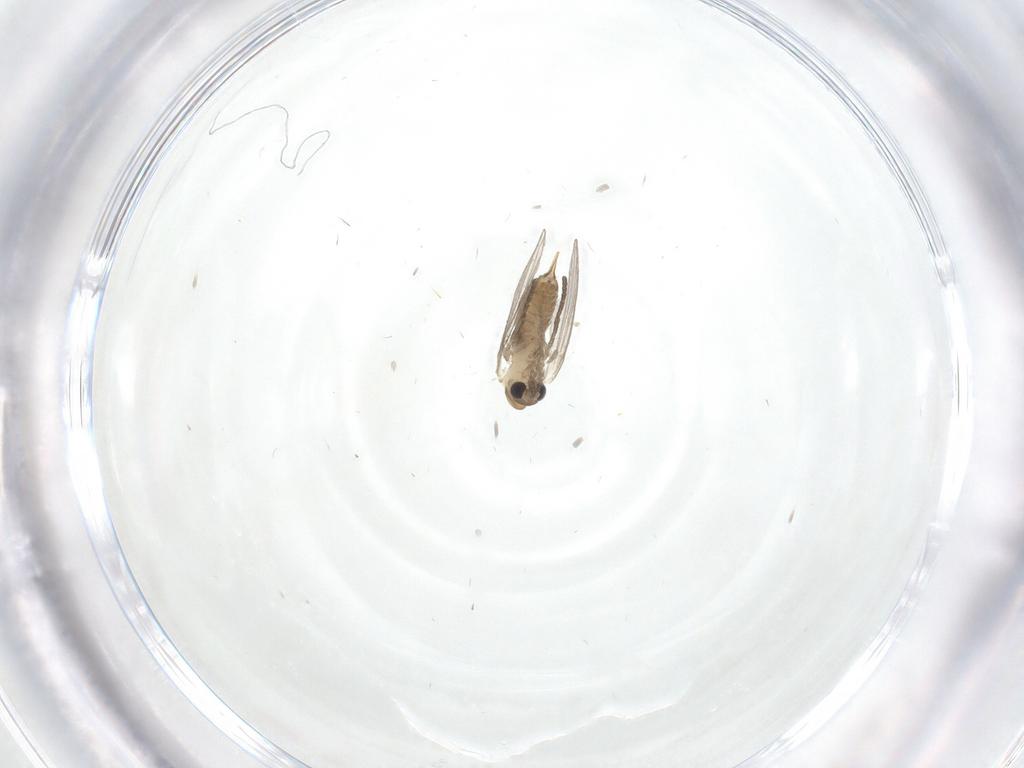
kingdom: Animalia
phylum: Arthropoda
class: Insecta
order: Diptera
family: Psychodidae
